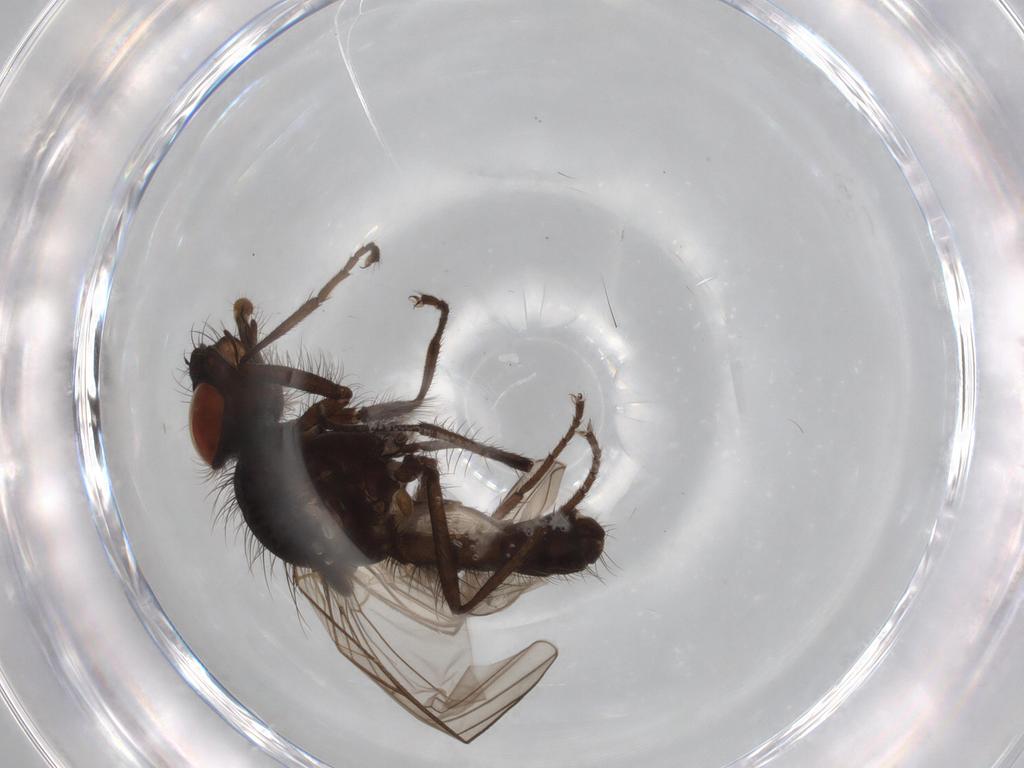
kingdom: Animalia
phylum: Arthropoda
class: Insecta
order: Diptera
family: Anthomyiidae
